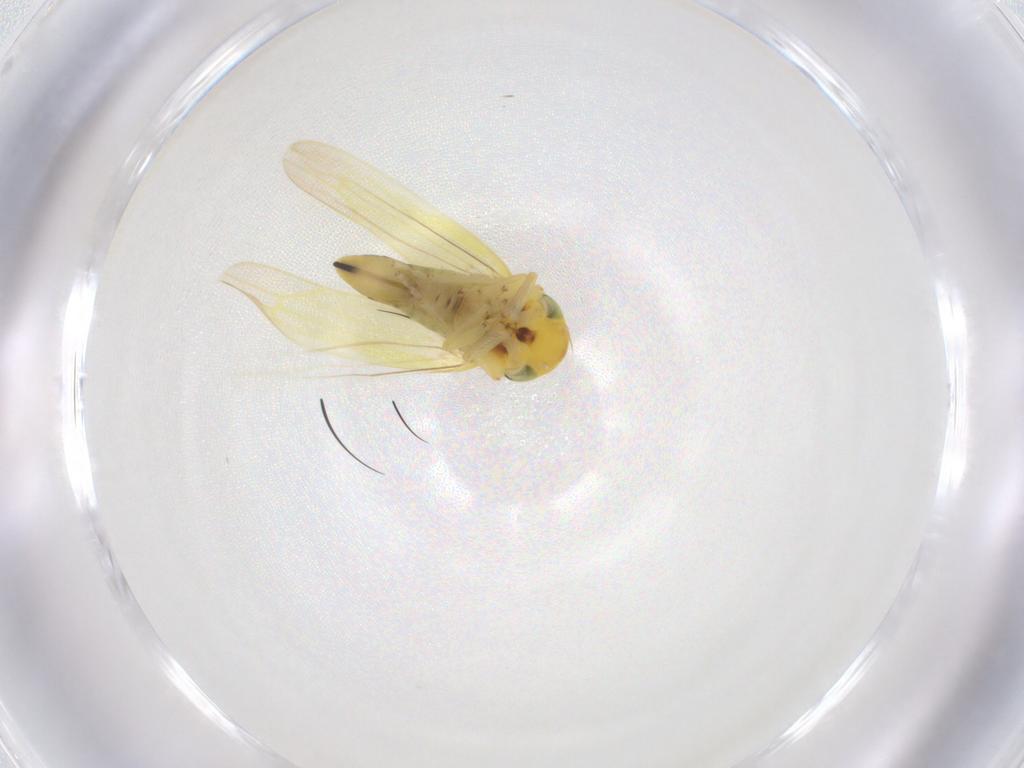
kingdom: Animalia
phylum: Arthropoda
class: Insecta
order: Hemiptera
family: Cicadellidae
